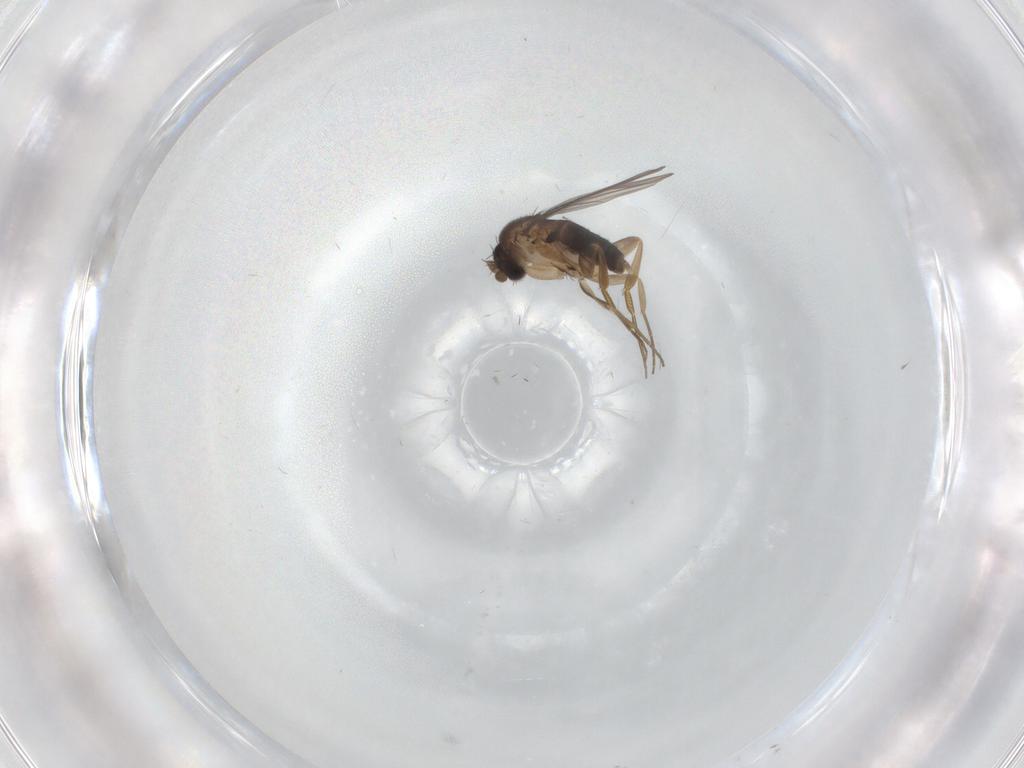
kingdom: Animalia
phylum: Arthropoda
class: Insecta
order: Diptera
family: Phoridae
